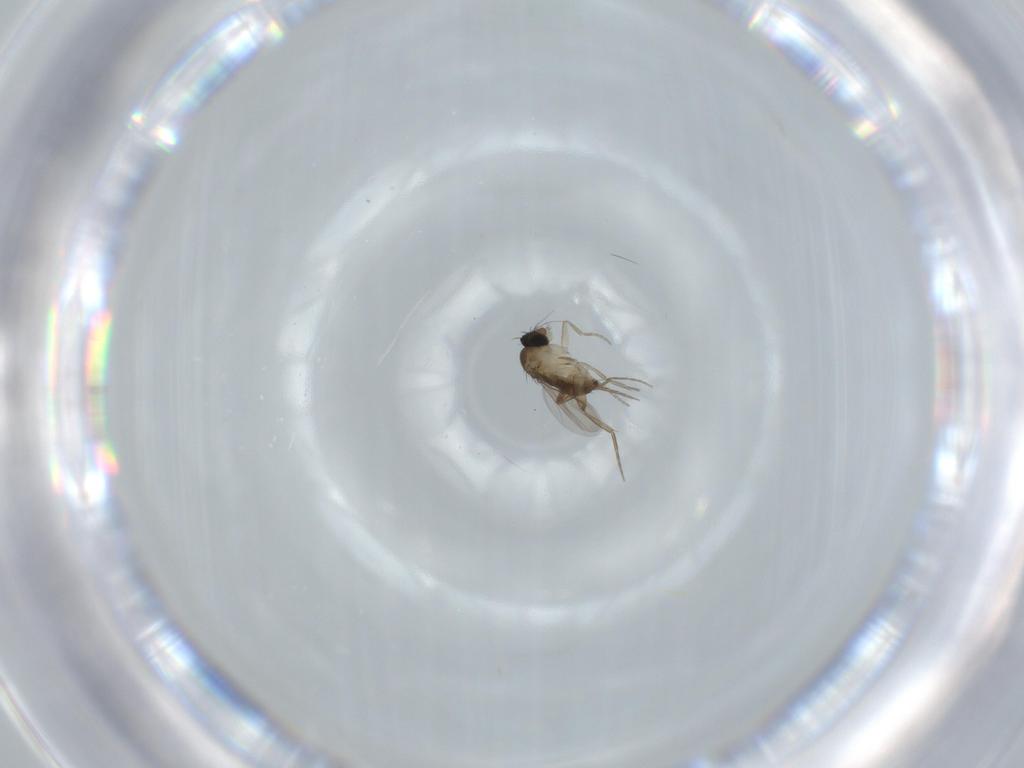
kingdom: Animalia
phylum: Arthropoda
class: Insecta
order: Diptera
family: Phoridae
